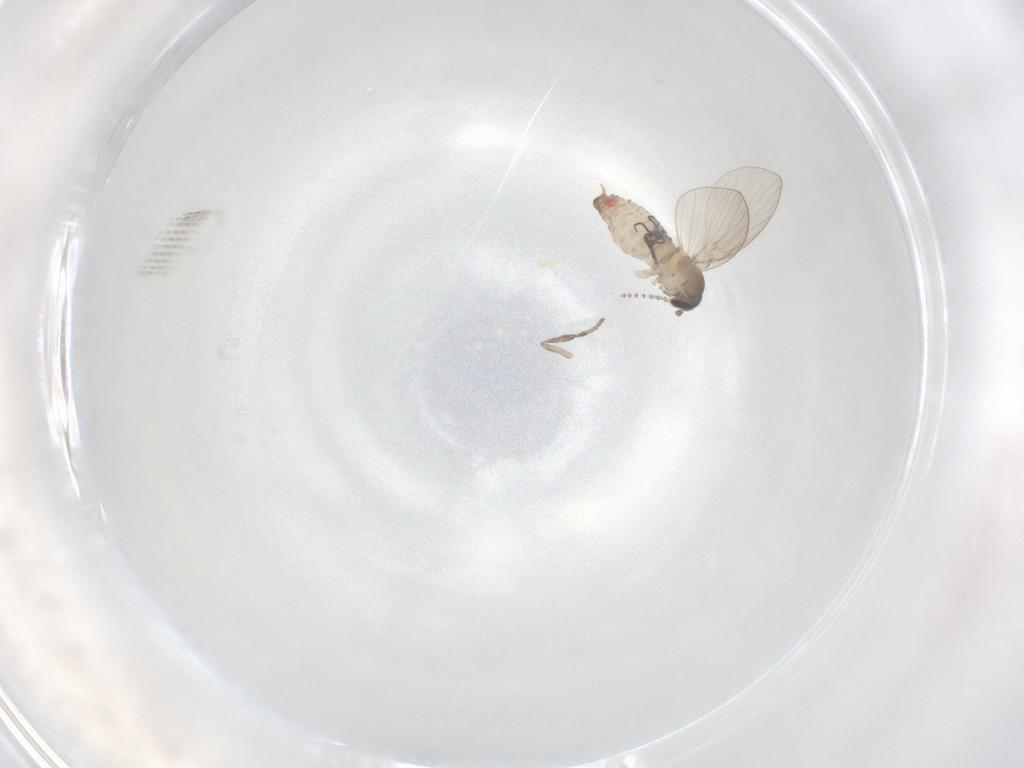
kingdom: Animalia
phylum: Arthropoda
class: Insecta
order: Diptera
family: Psychodidae
